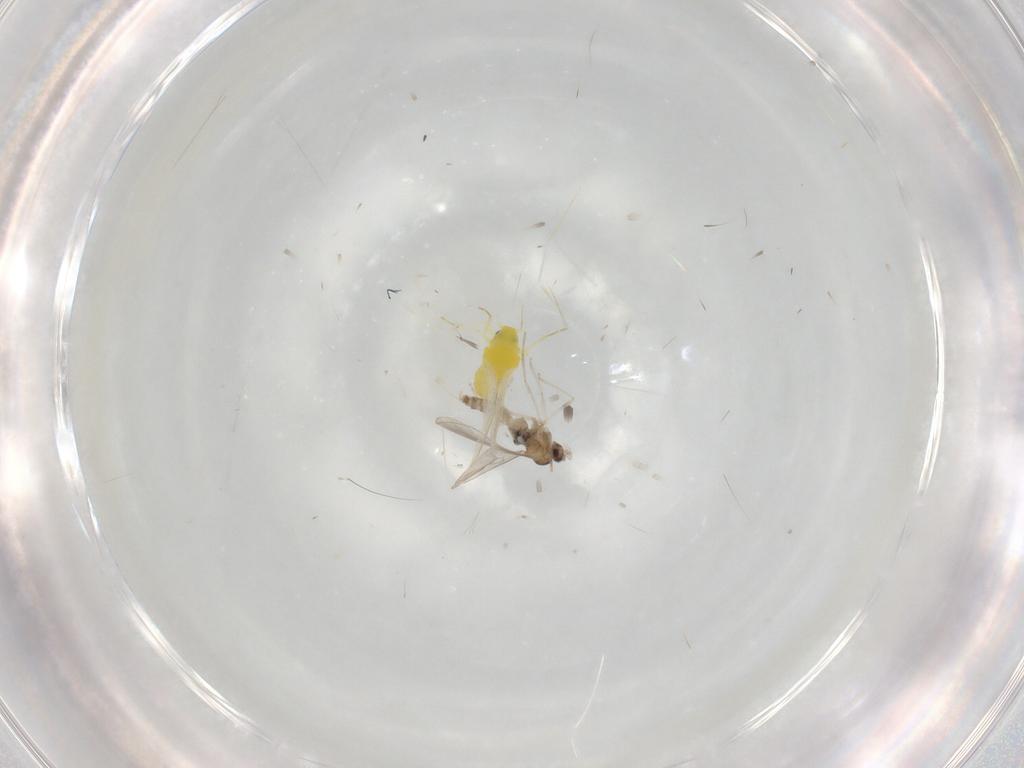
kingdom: Animalia
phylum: Arthropoda
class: Insecta
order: Diptera
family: Cecidomyiidae
